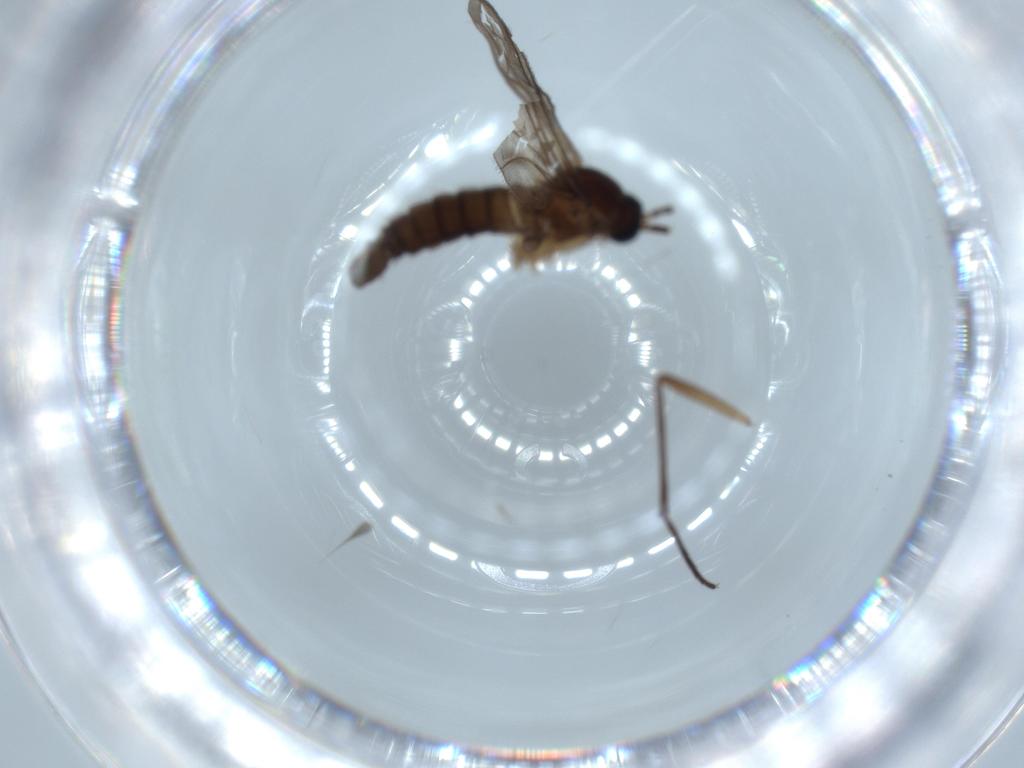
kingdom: Animalia
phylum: Arthropoda
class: Insecta
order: Diptera
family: Sciaridae
